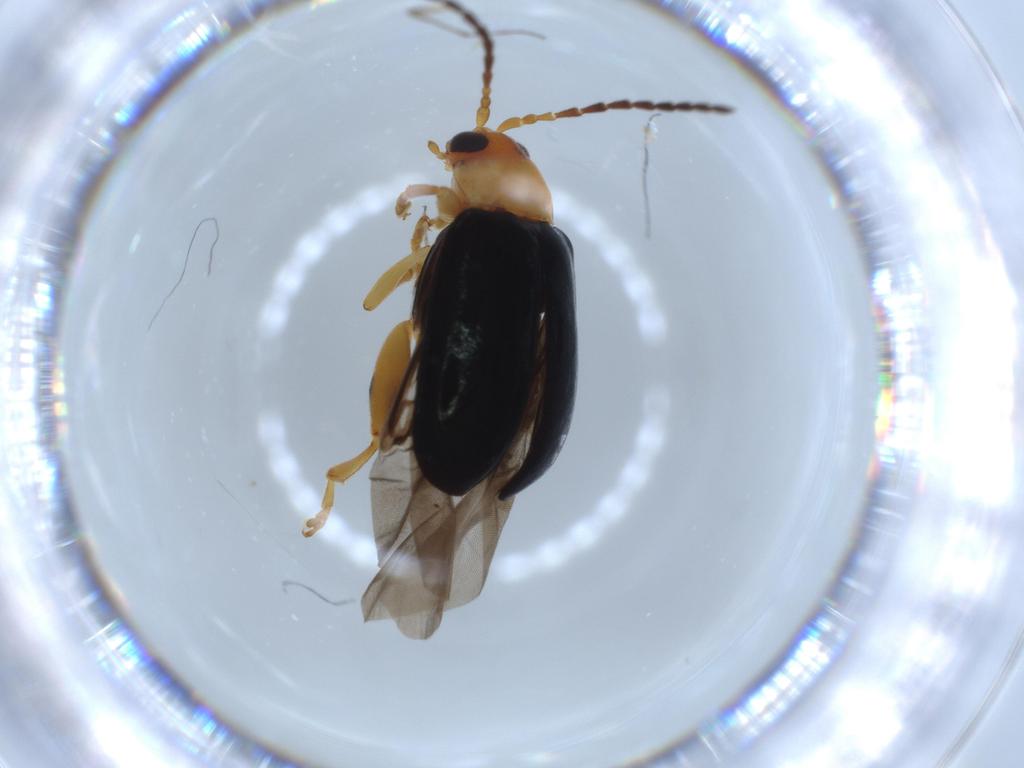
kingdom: Animalia
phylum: Arthropoda
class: Insecta
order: Coleoptera
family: Chrysomelidae
